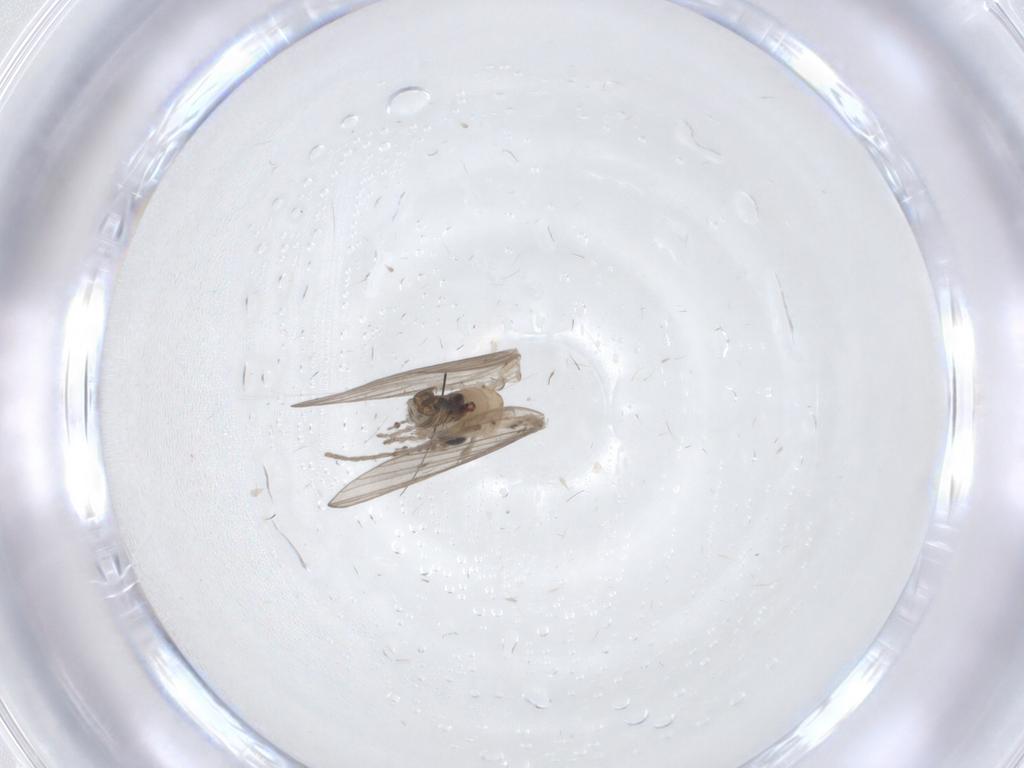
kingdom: Animalia
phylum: Arthropoda
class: Insecta
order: Diptera
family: Psychodidae
